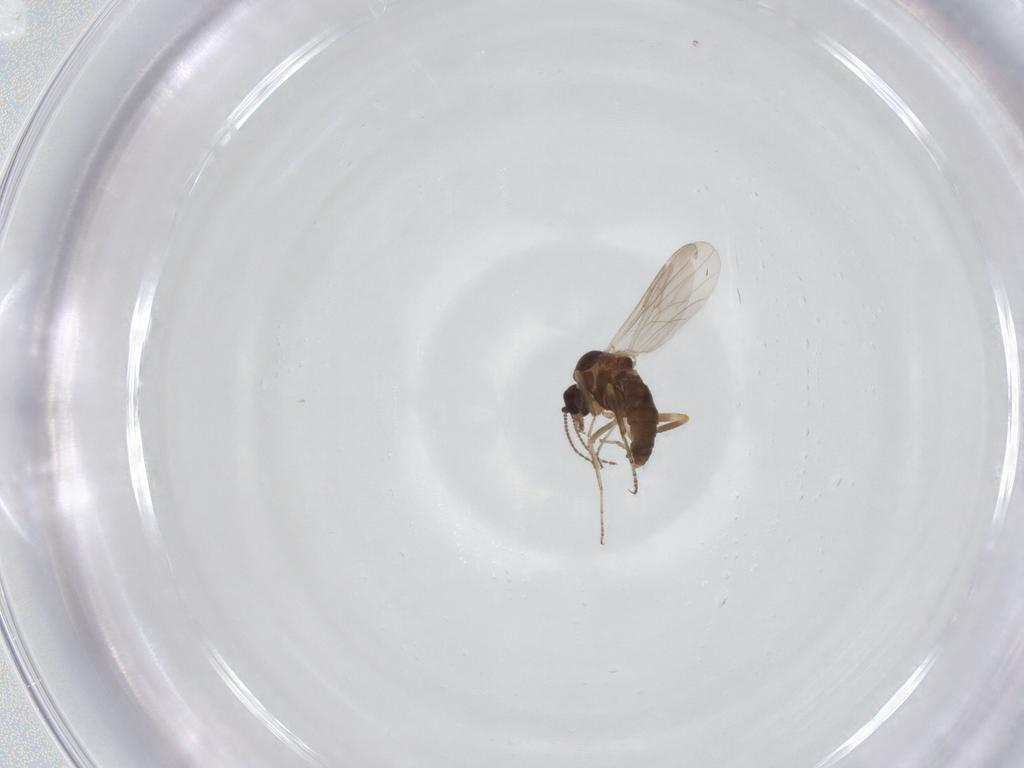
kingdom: Animalia
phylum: Arthropoda
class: Insecta
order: Diptera
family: Ceratopogonidae
